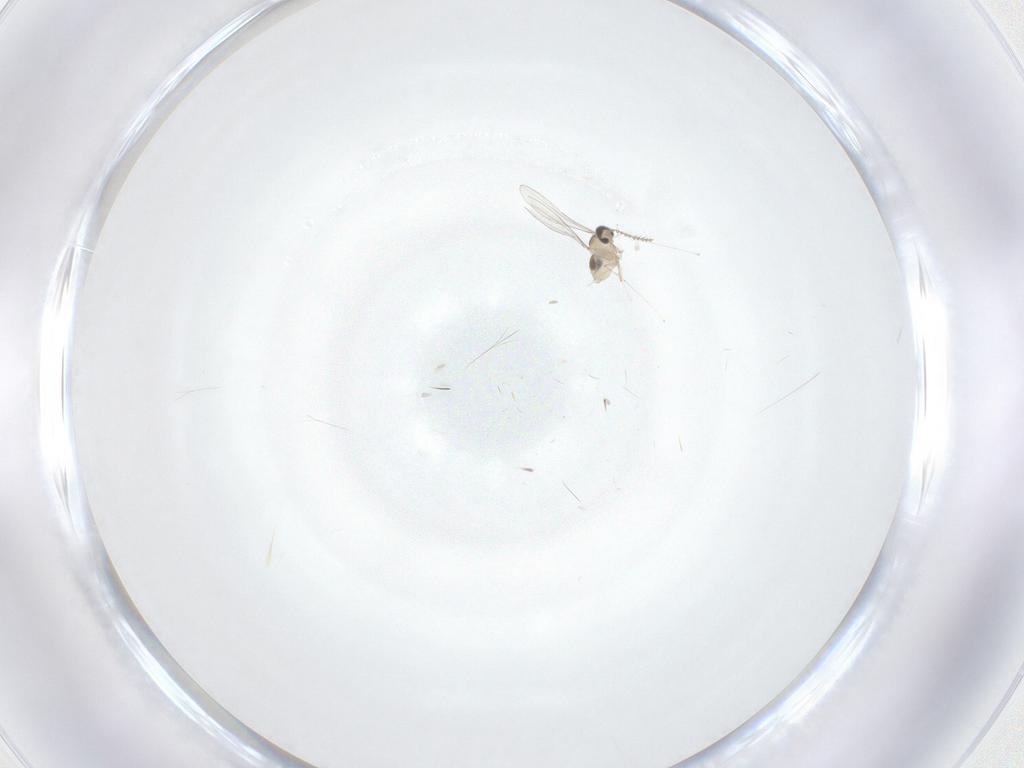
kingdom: Animalia
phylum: Arthropoda
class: Insecta
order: Diptera
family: Cecidomyiidae
